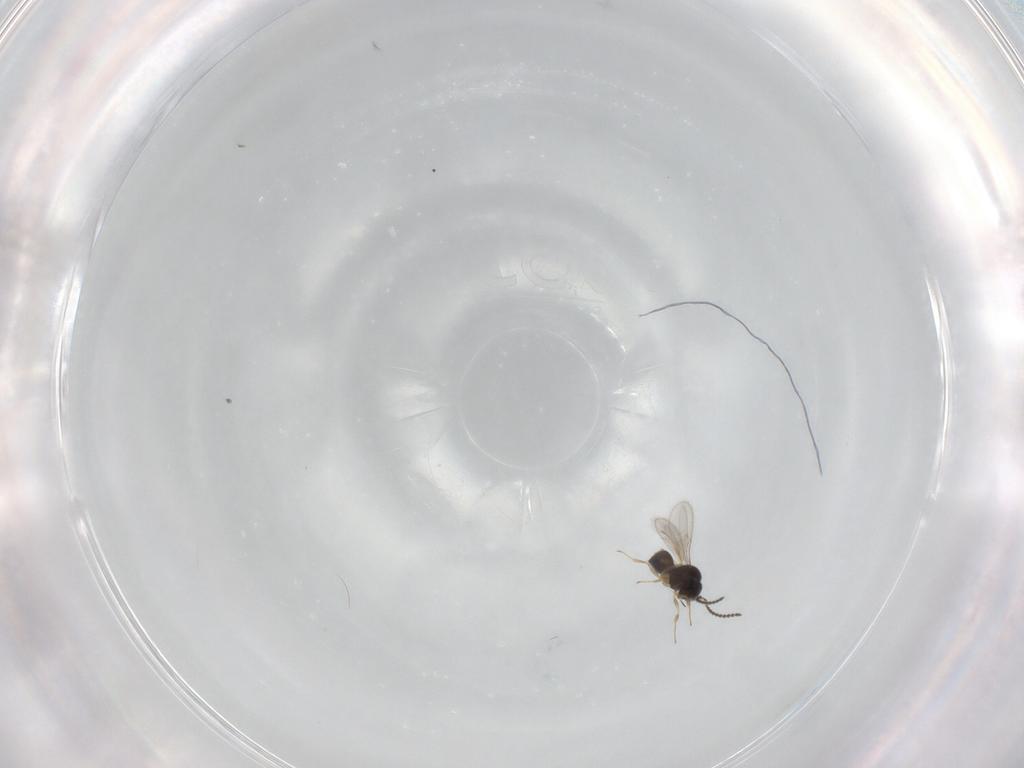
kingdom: Animalia
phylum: Arthropoda
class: Insecta
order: Hymenoptera
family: Scelionidae
